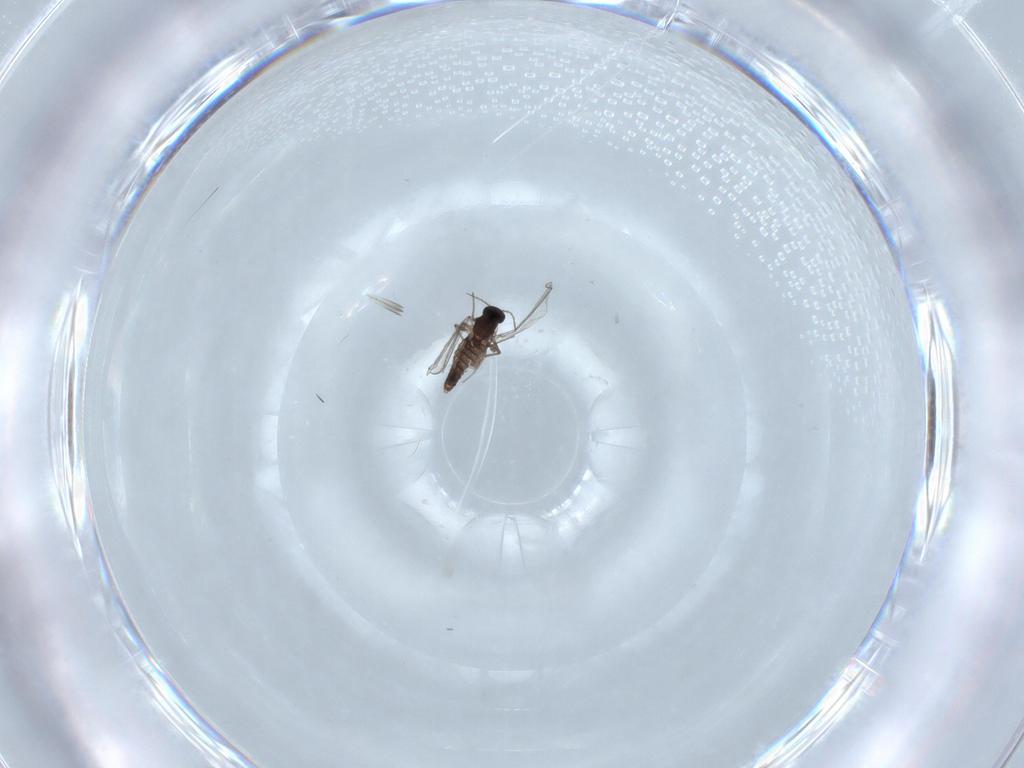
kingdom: Animalia
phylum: Arthropoda
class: Insecta
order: Diptera
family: Chironomidae
